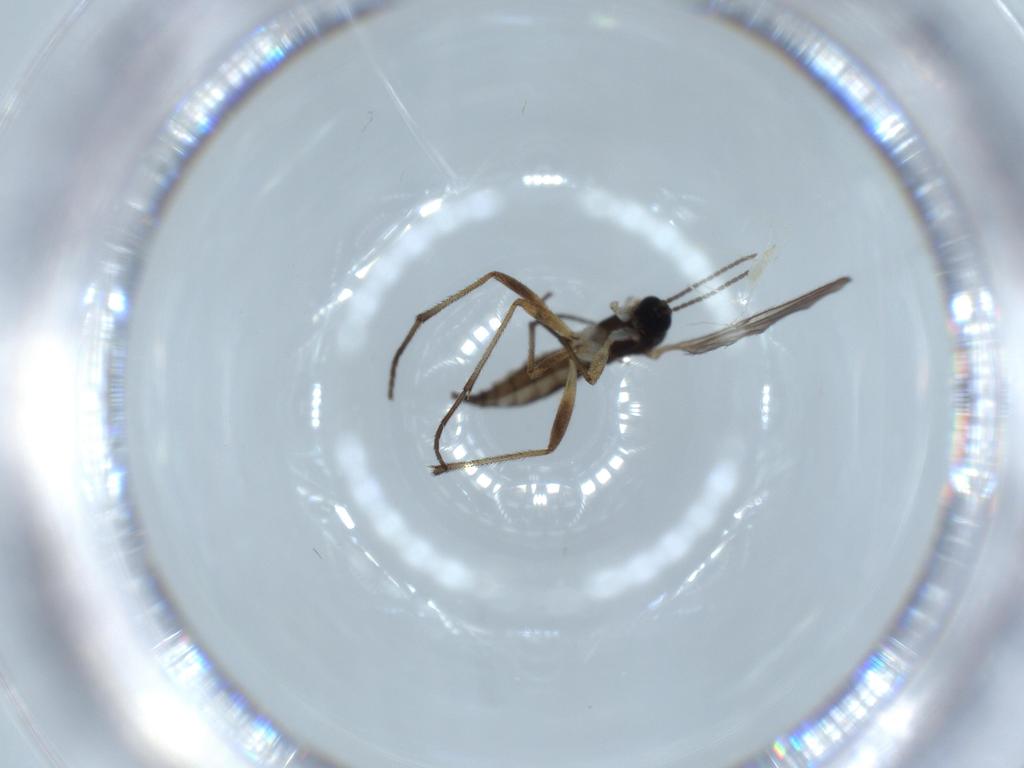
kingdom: Animalia
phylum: Arthropoda
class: Insecta
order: Diptera
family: Sciaridae
